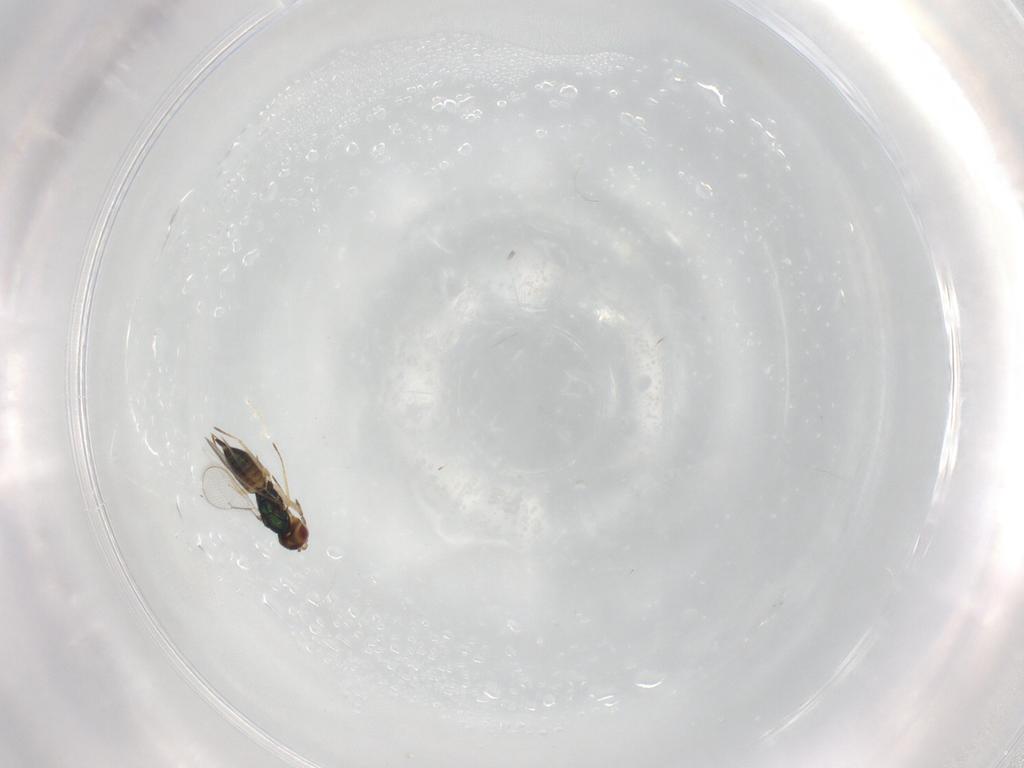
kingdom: Animalia
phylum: Arthropoda
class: Insecta
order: Hymenoptera
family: Eulophidae
